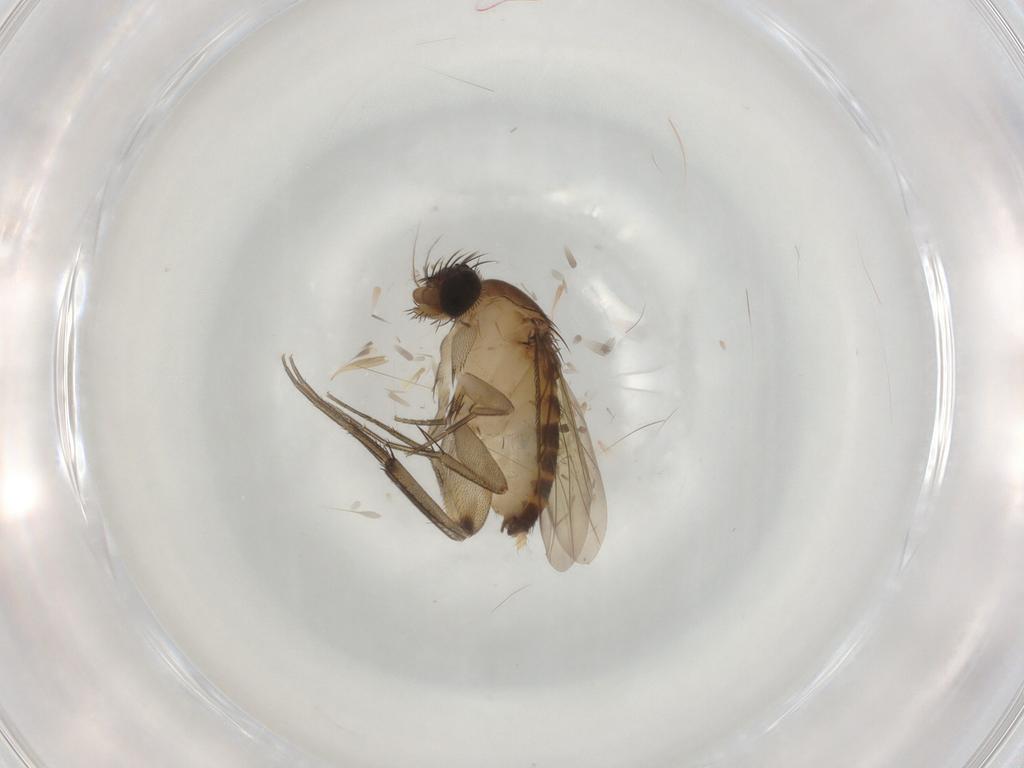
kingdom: Animalia
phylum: Arthropoda
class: Insecta
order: Diptera
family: Phoridae
